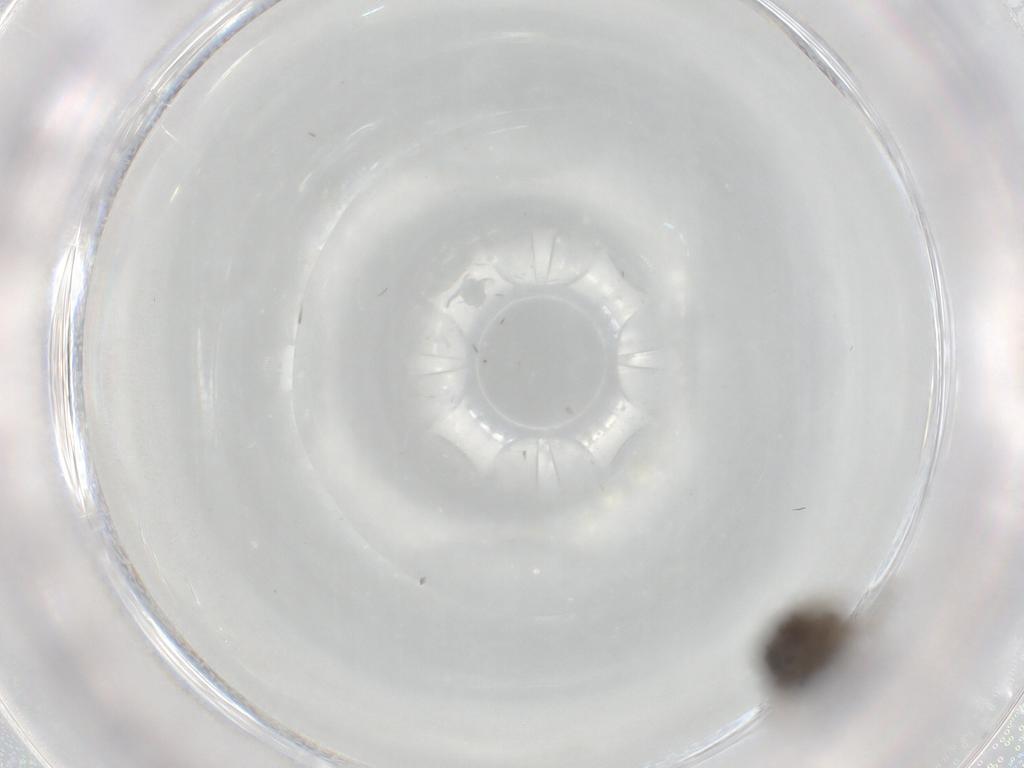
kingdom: Animalia
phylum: Arthropoda
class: Insecta
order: Diptera
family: Phoridae
